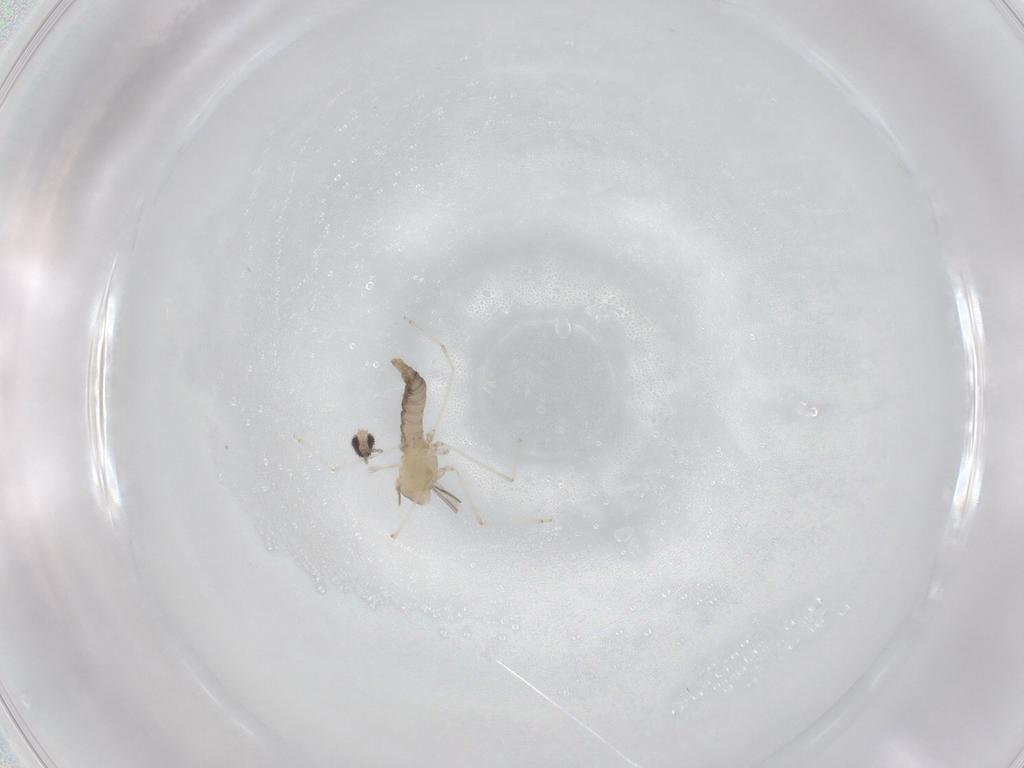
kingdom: Animalia
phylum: Arthropoda
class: Insecta
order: Diptera
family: Cecidomyiidae
